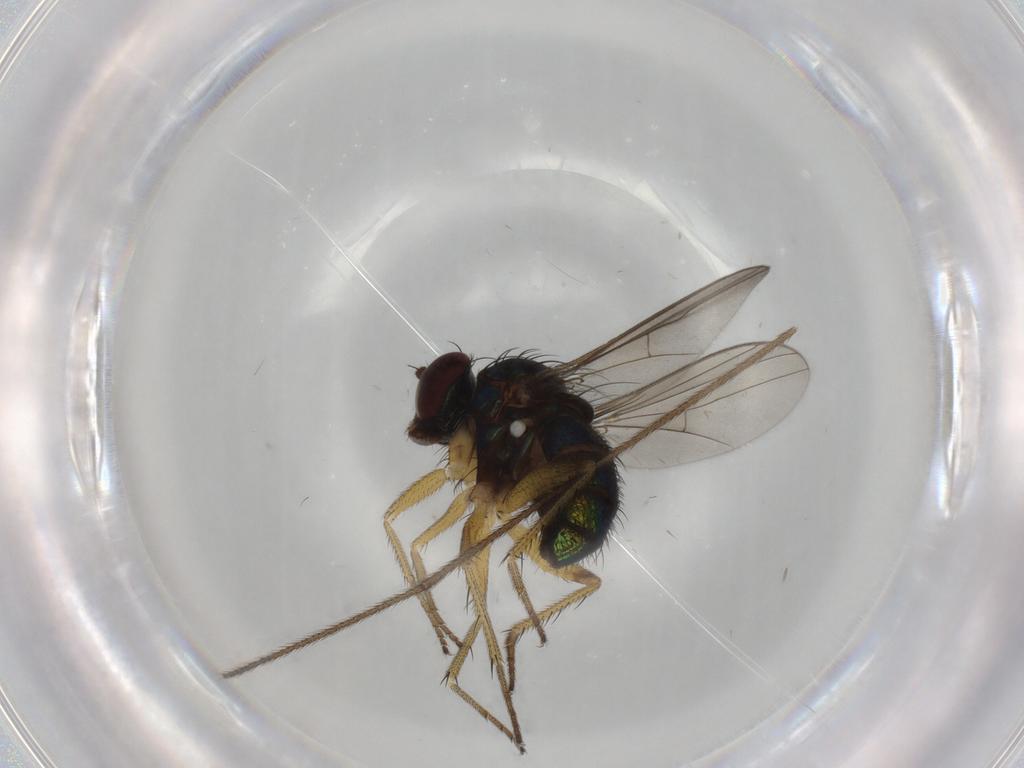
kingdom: Animalia
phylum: Arthropoda
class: Insecta
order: Diptera
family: Dolichopodidae
